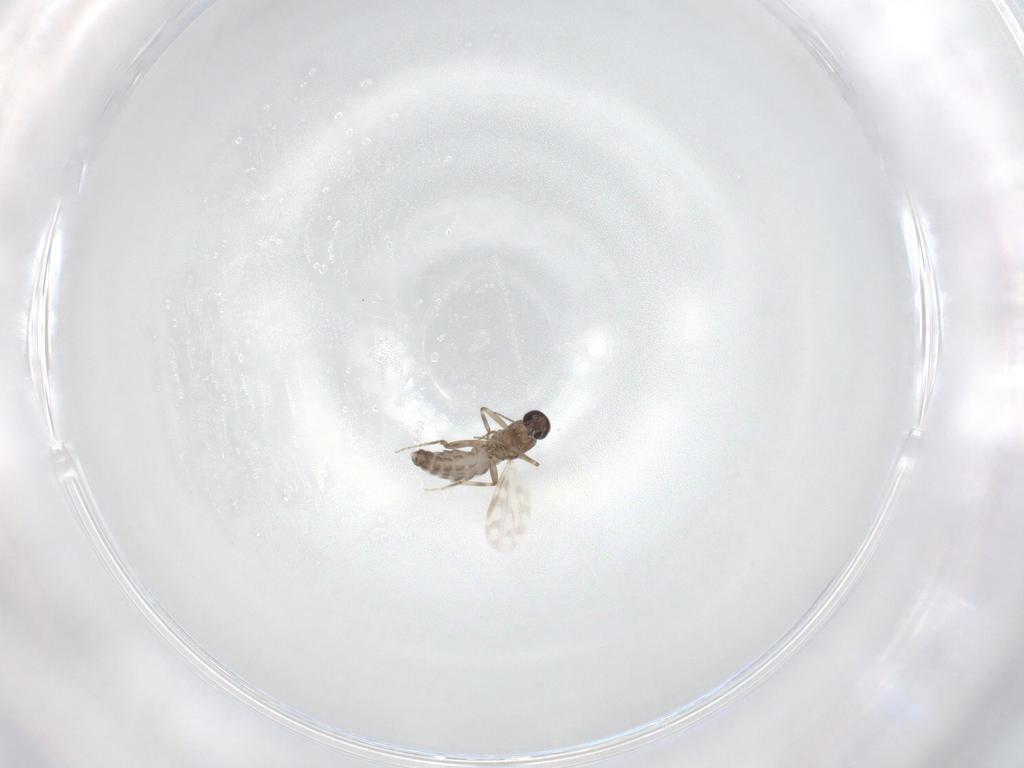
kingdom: Animalia
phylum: Arthropoda
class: Insecta
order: Diptera
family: Ceratopogonidae
